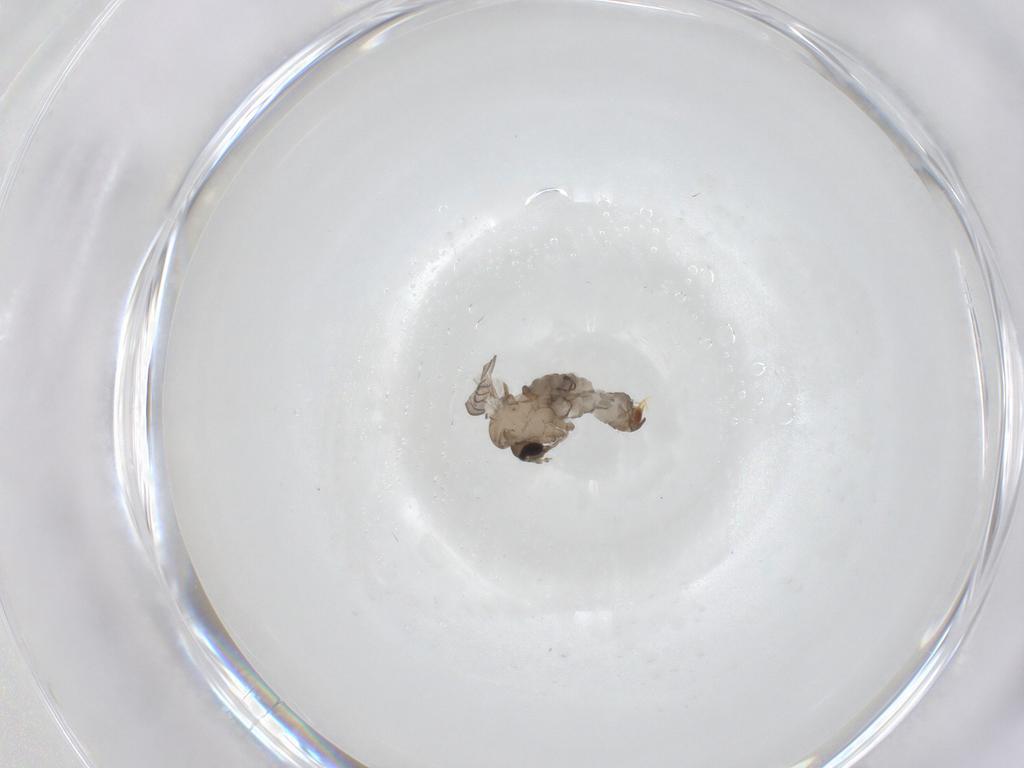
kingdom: Animalia
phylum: Arthropoda
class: Insecta
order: Diptera
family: Psychodidae
